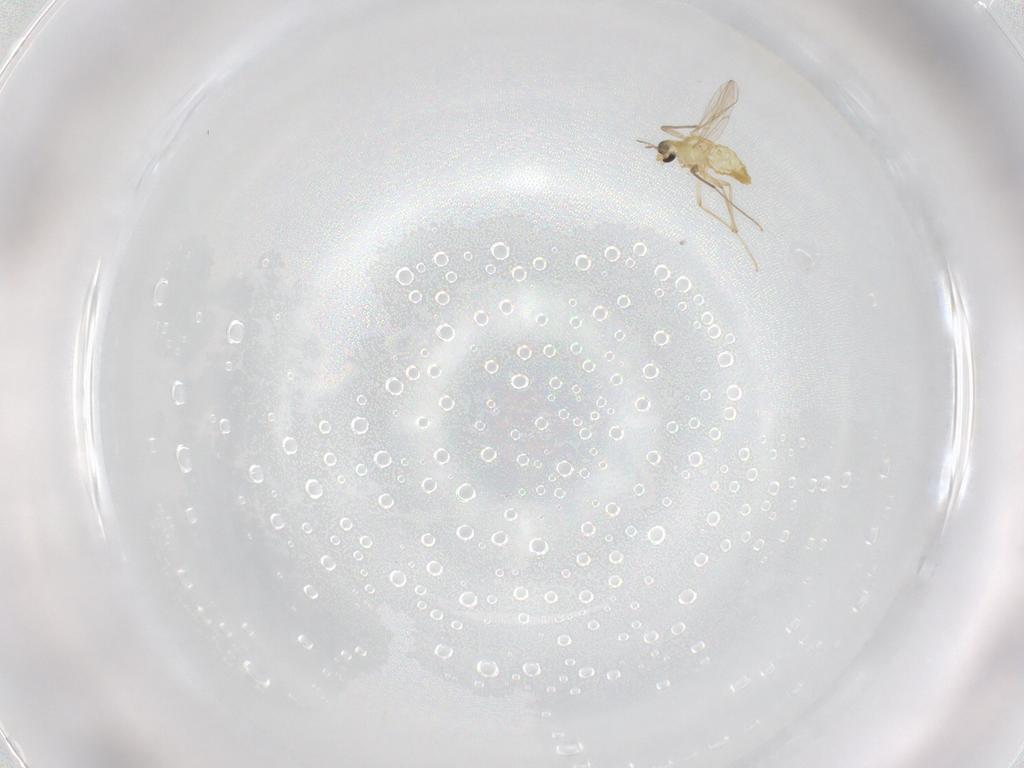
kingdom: Animalia
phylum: Arthropoda
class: Insecta
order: Diptera
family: Chironomidae
